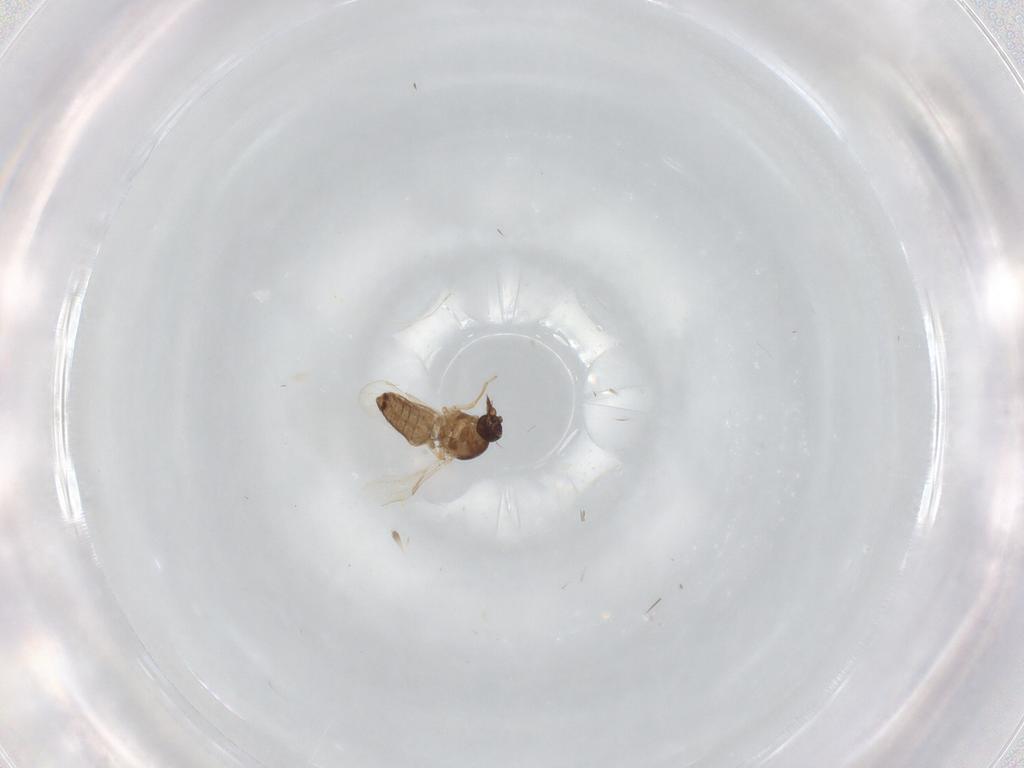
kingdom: Animalia
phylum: Arthropoda
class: Insecta
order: Diptera
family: Ceratopogonidae
